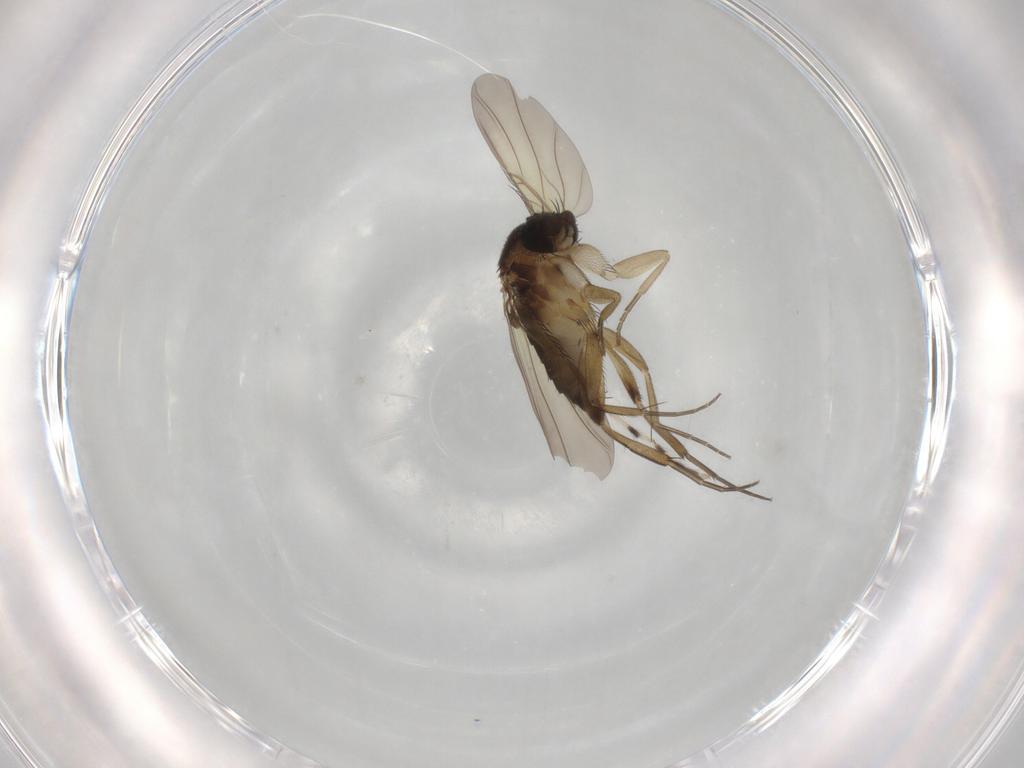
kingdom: Animalia
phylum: Arthropoda
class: Insecta
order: Diptera
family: Phoridae
